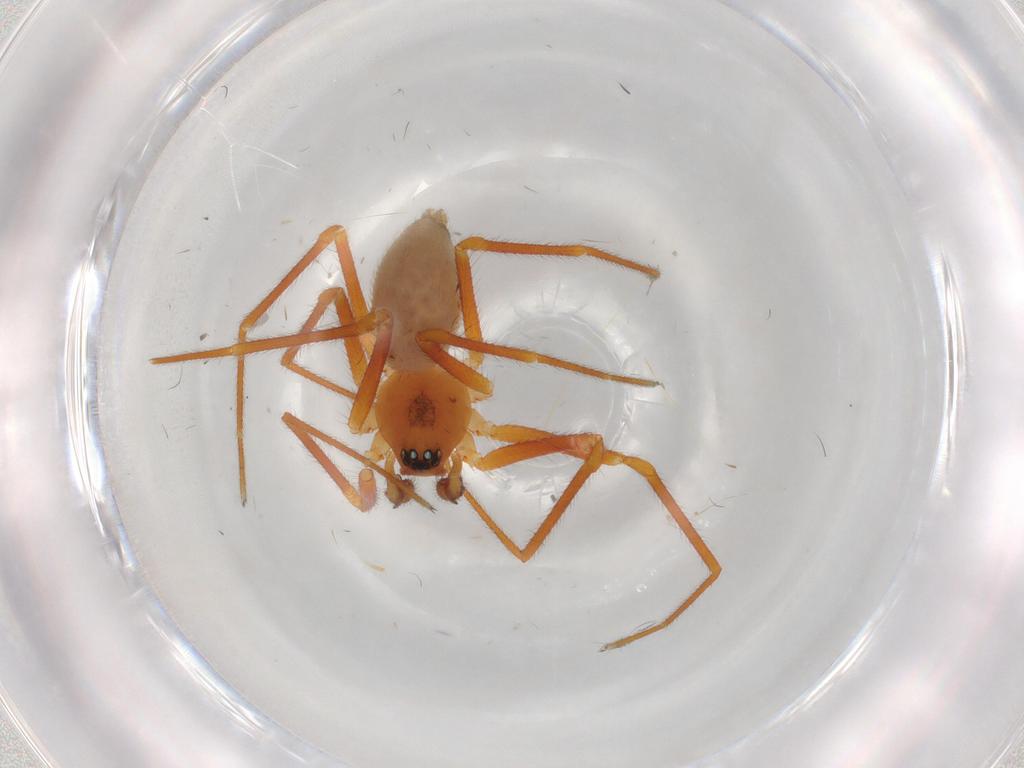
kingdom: Animalia
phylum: Arthropoda
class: Arachnida
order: Araneae
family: Linyphiidae
